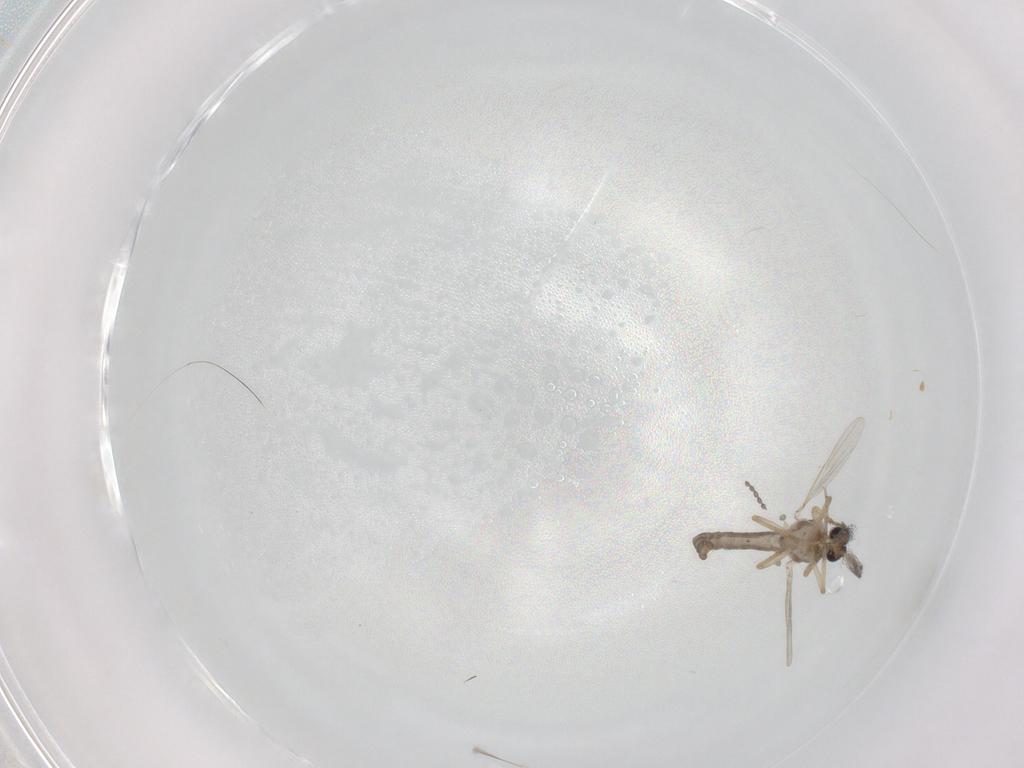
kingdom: Animalia
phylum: Arthropoda
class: Insecta
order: Diptera
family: Ceratopogonidae
